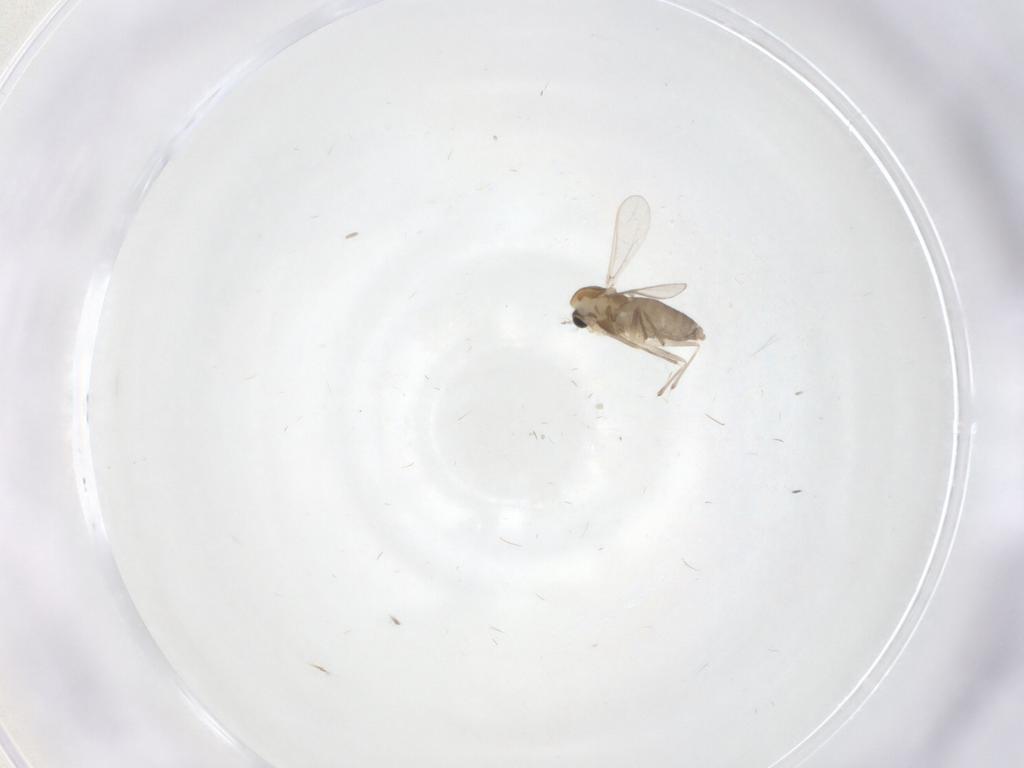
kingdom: Animalia
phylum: Arthropoda
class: Insecta
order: Diptera
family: Chironomidae
